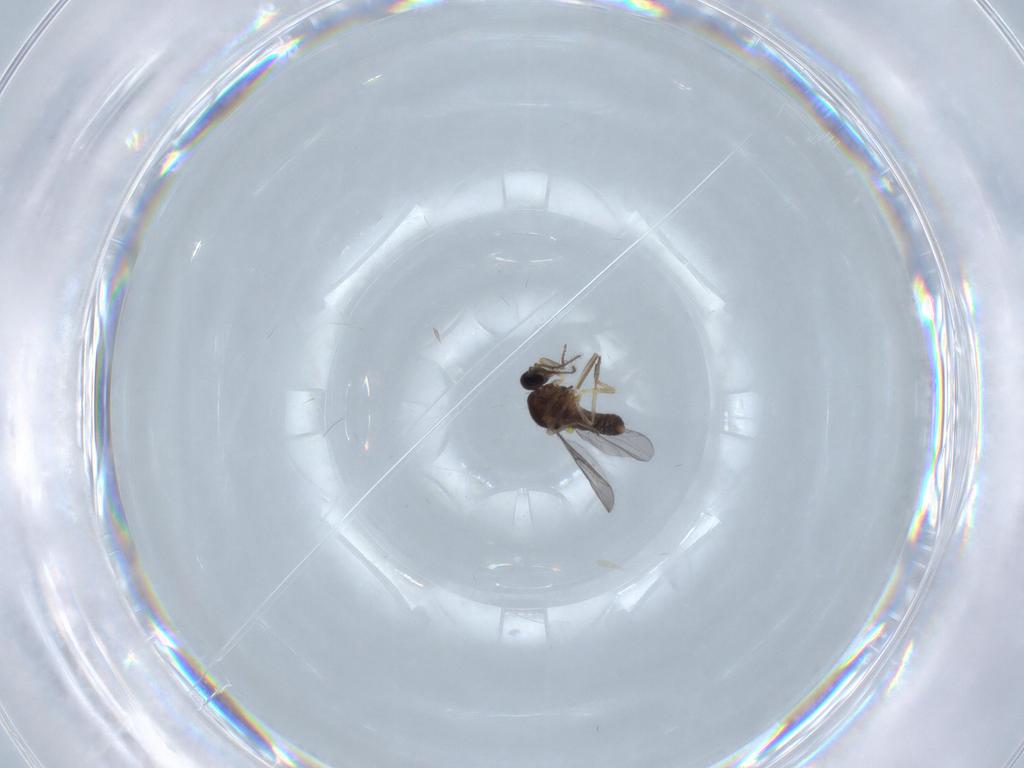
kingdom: Animalia
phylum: Arthropoda
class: Insecta
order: Diptera
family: Ceratopogonidae
